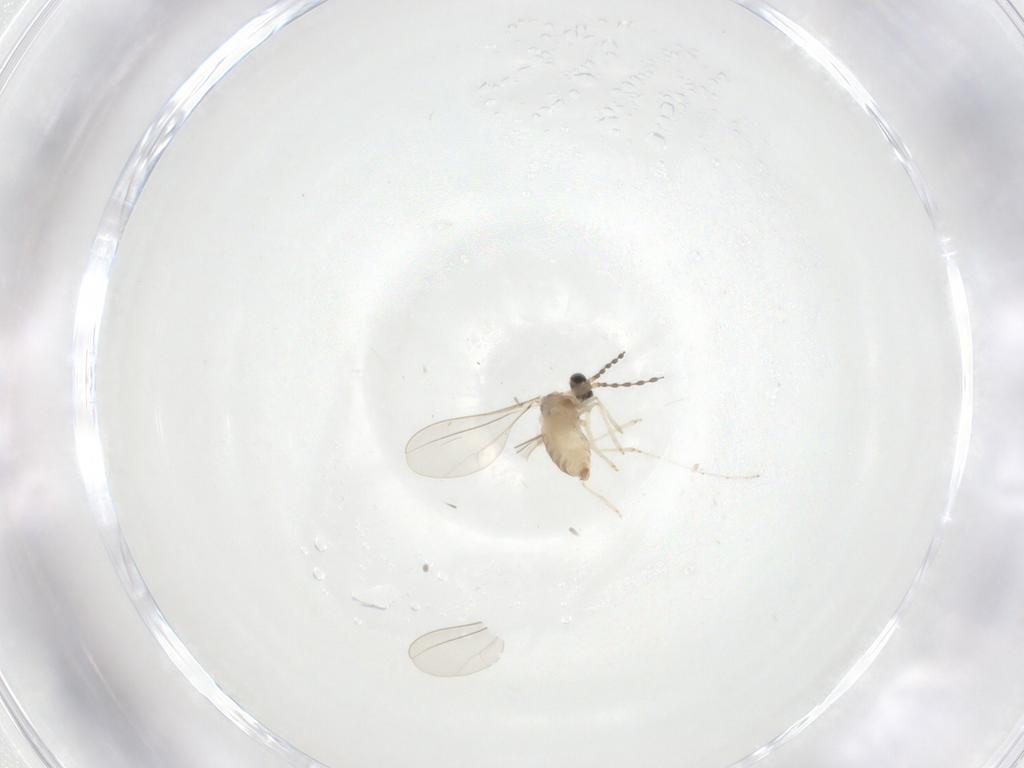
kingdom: Animalia
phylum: Arthropoda
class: Insecta
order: Diptera
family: Cecidomyiidae
